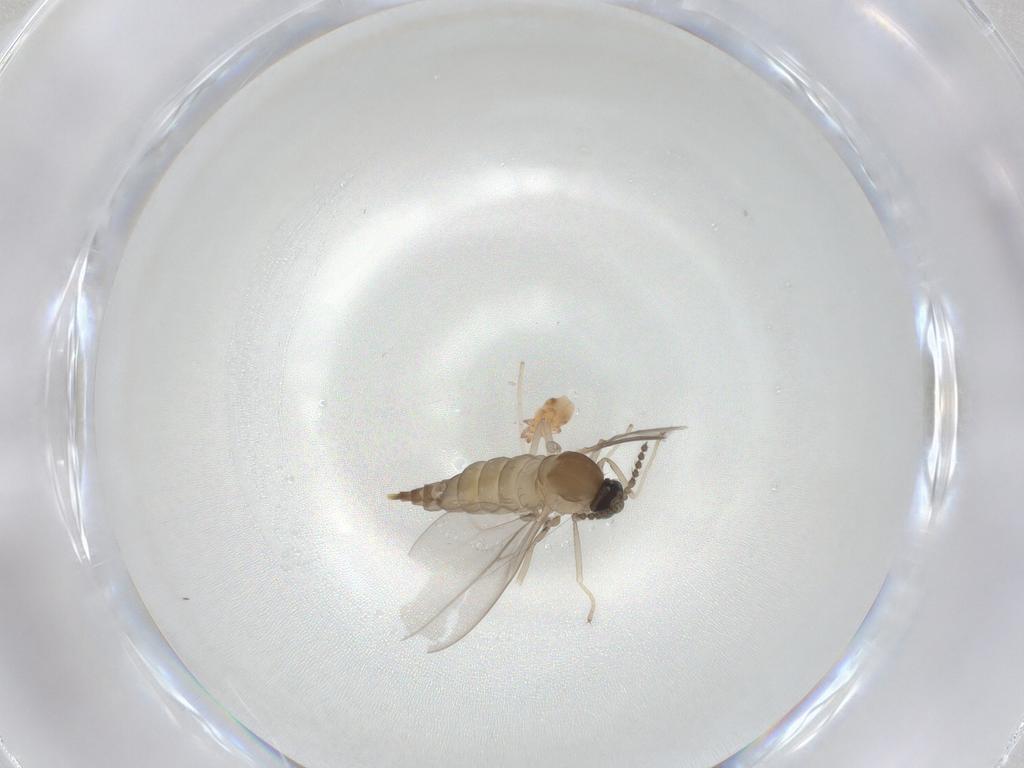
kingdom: Animalia
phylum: Arthropoda
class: Insecta
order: Diptera
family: Cecidomyiidae
